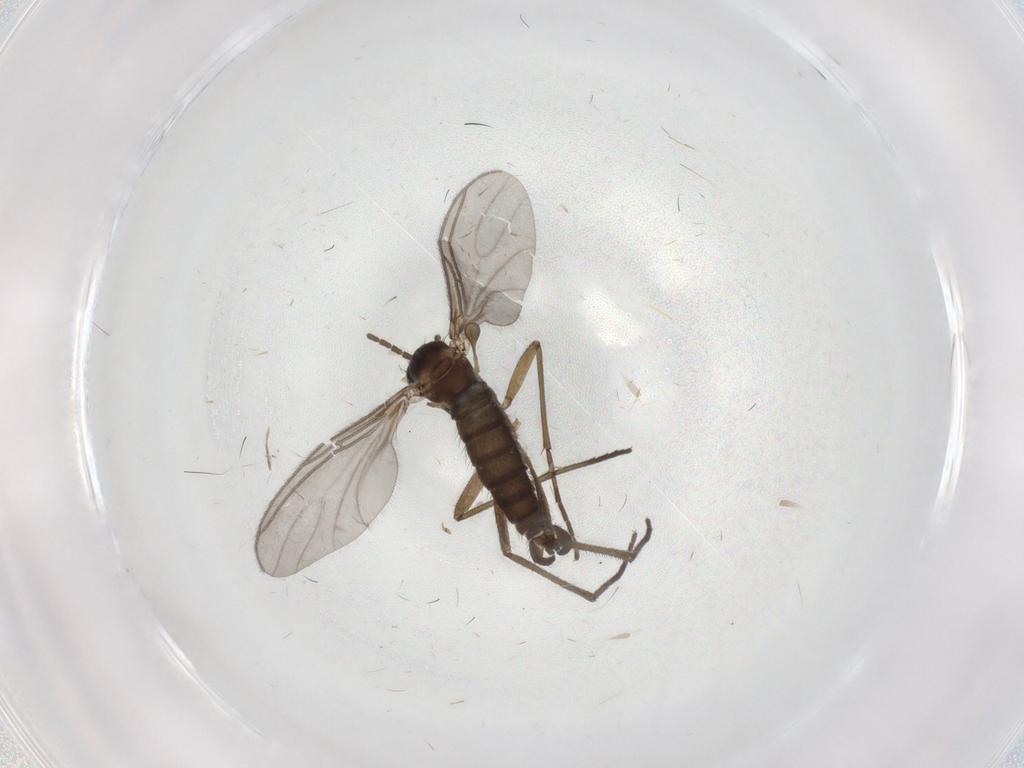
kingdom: Animalia
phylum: Arthropoda
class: Insecta
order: Diptera
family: Sciaridae
